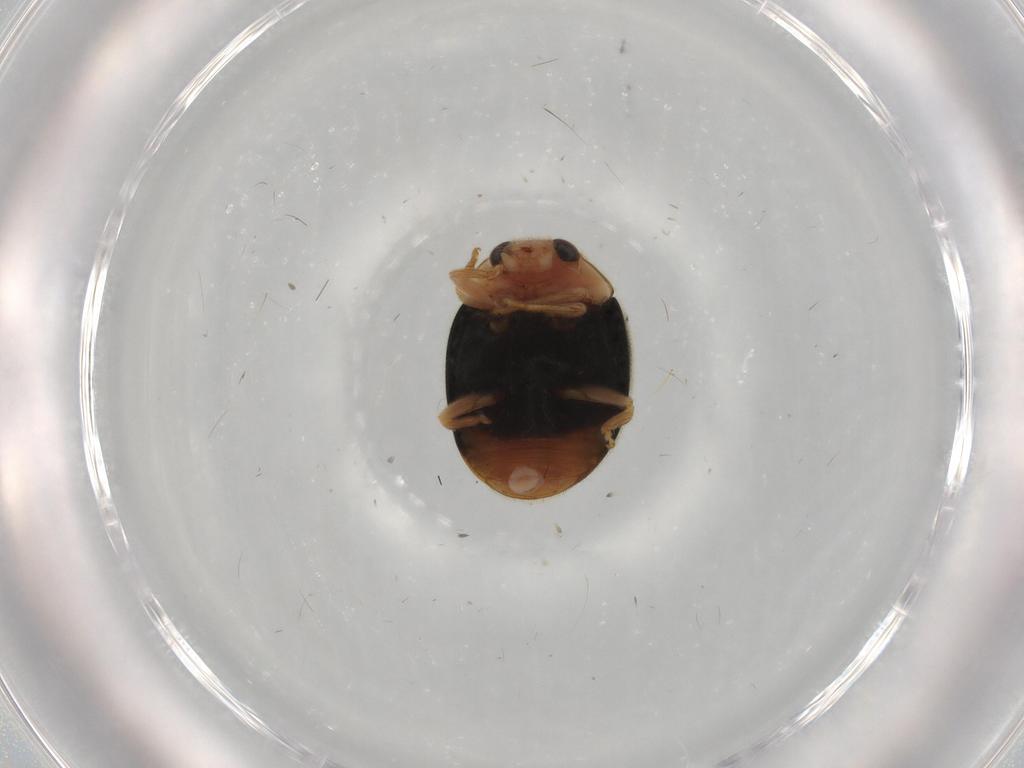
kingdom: Animalia
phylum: Arthropoda
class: Insecta
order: Coleoptera
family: Coccinellidae
